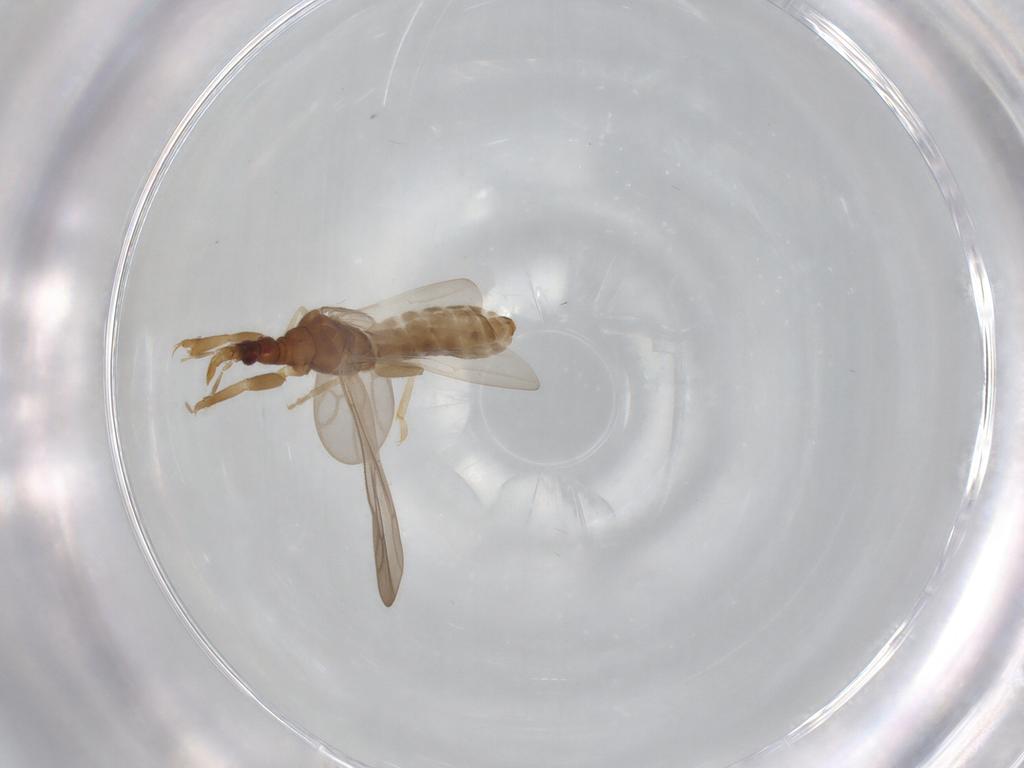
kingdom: Animalia
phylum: Arthropoda
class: Insecta
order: Hemiptera
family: Enicocephalidae
